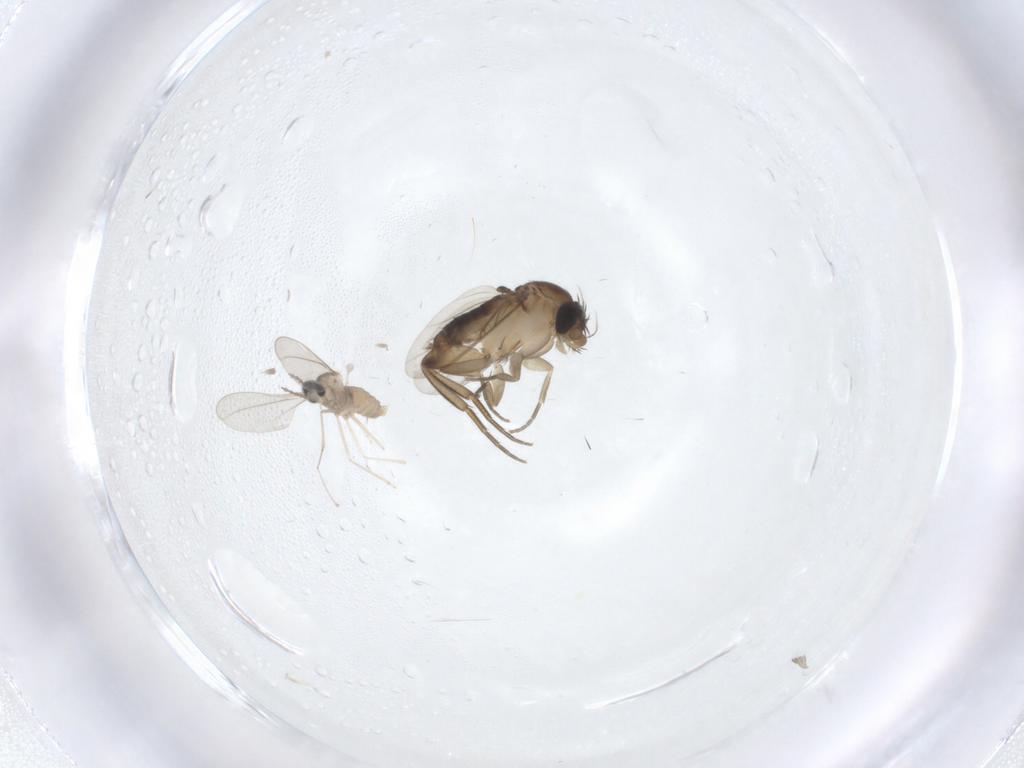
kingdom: Animalia
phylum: Arthropoda
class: Insecta
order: Diptera
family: Phoridae
